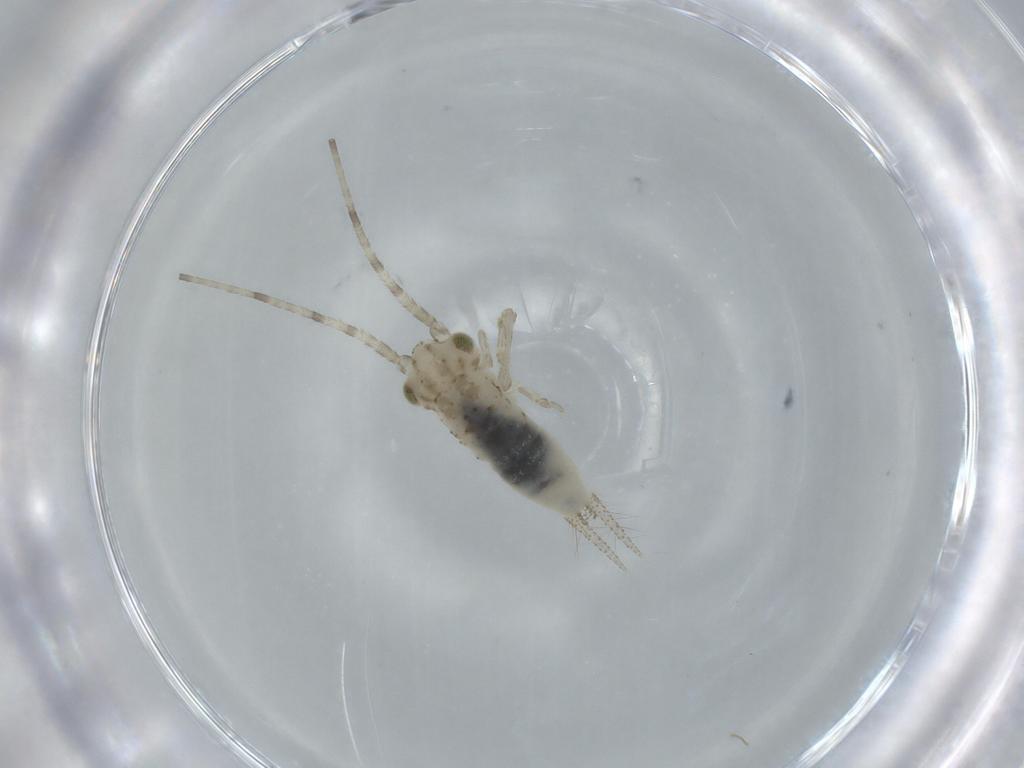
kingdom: Animalia
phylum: Arthropoda
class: Insecta
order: Orthoptera
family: Trigonidiidae
